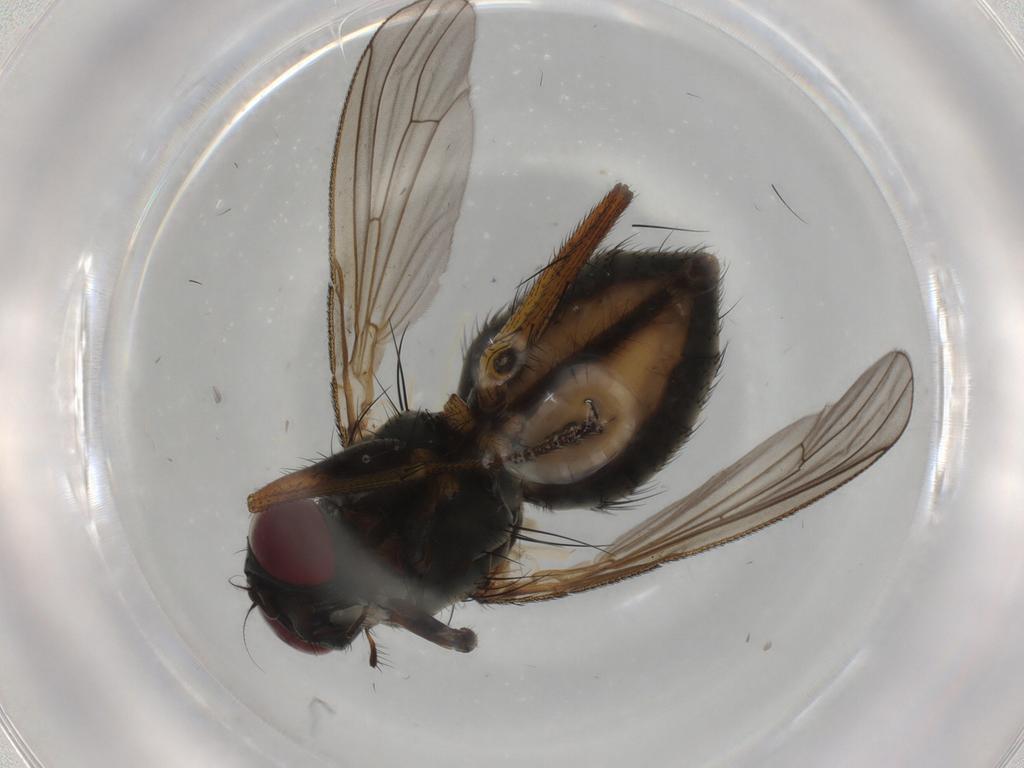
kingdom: Animalia
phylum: Arthropoda
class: Insecta
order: Diptera
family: Muscidae
